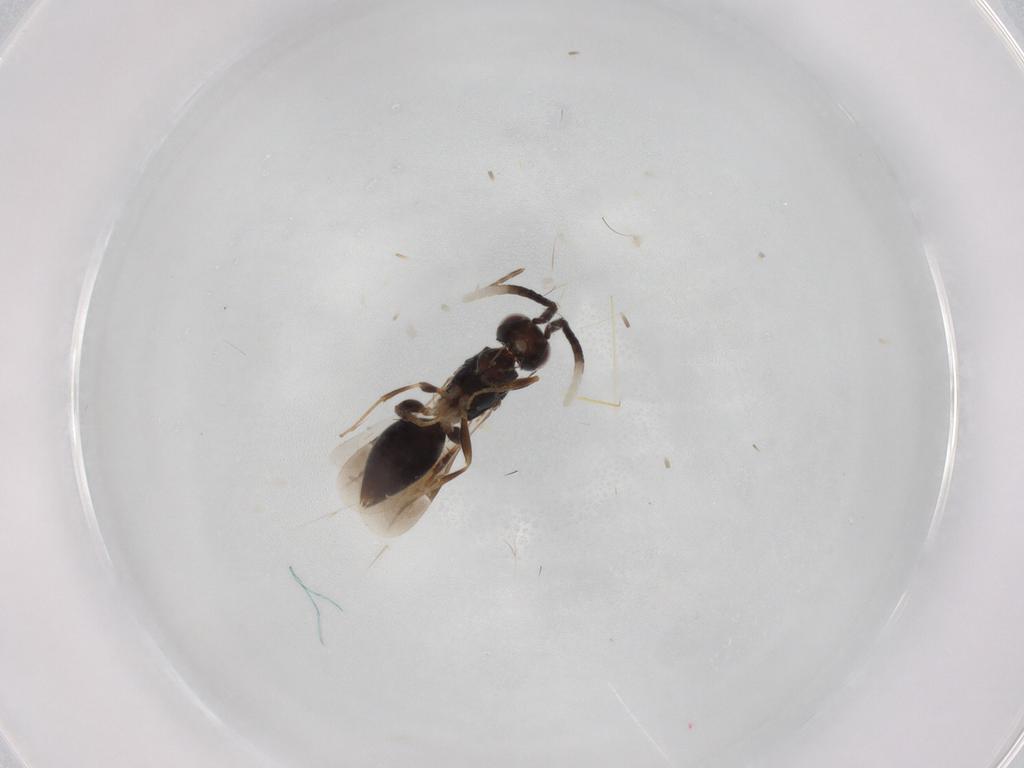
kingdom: Animalia
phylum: Arthropoda
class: Insecta
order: Hymenoptera
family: Megaspilidae
